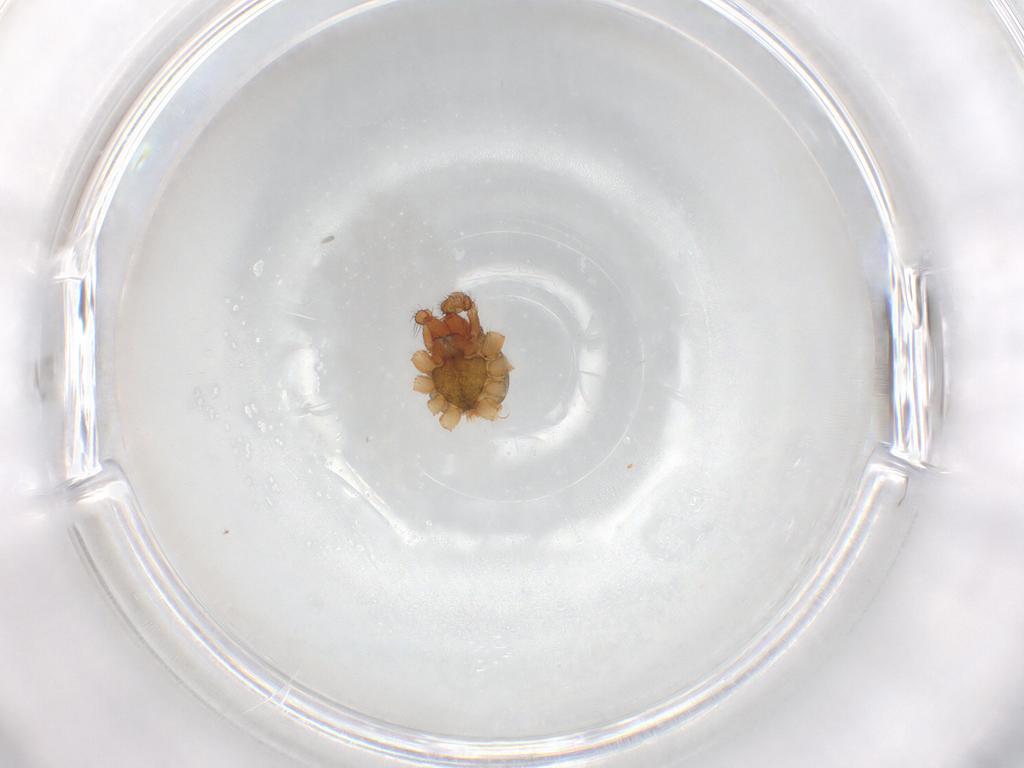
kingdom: Animalia
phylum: Arthropoda
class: Arachnida
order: Araneae
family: Theridiidae
